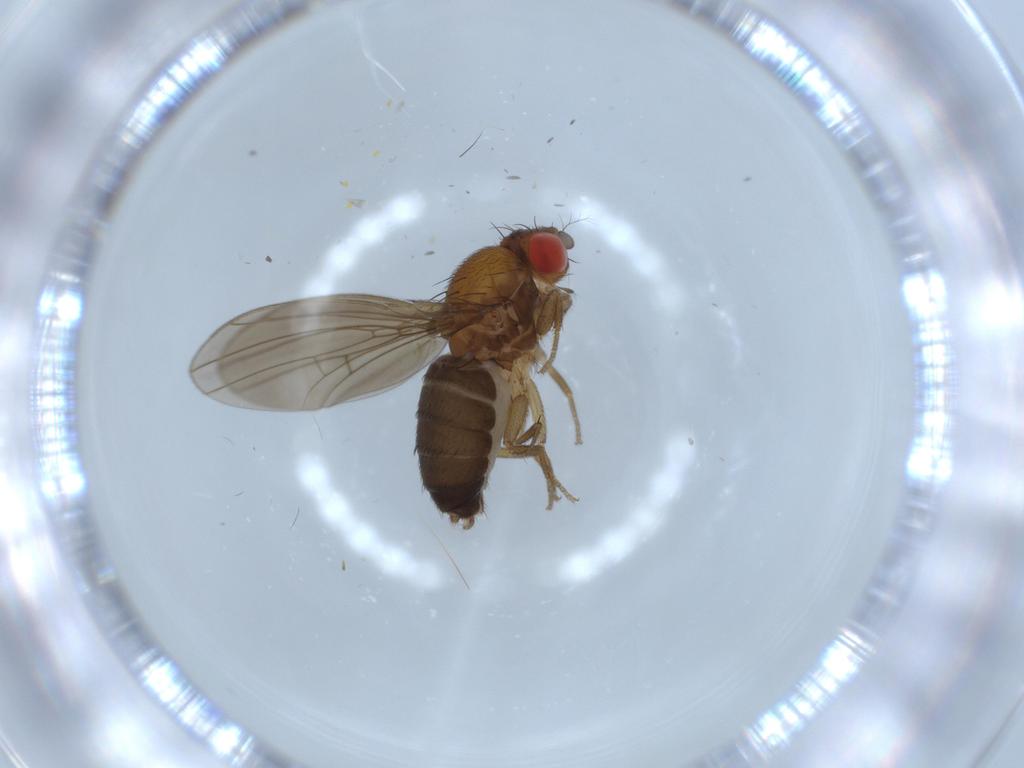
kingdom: Animalia
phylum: Arthropoda
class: Insecta
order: Diptera
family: Drosophilidae
